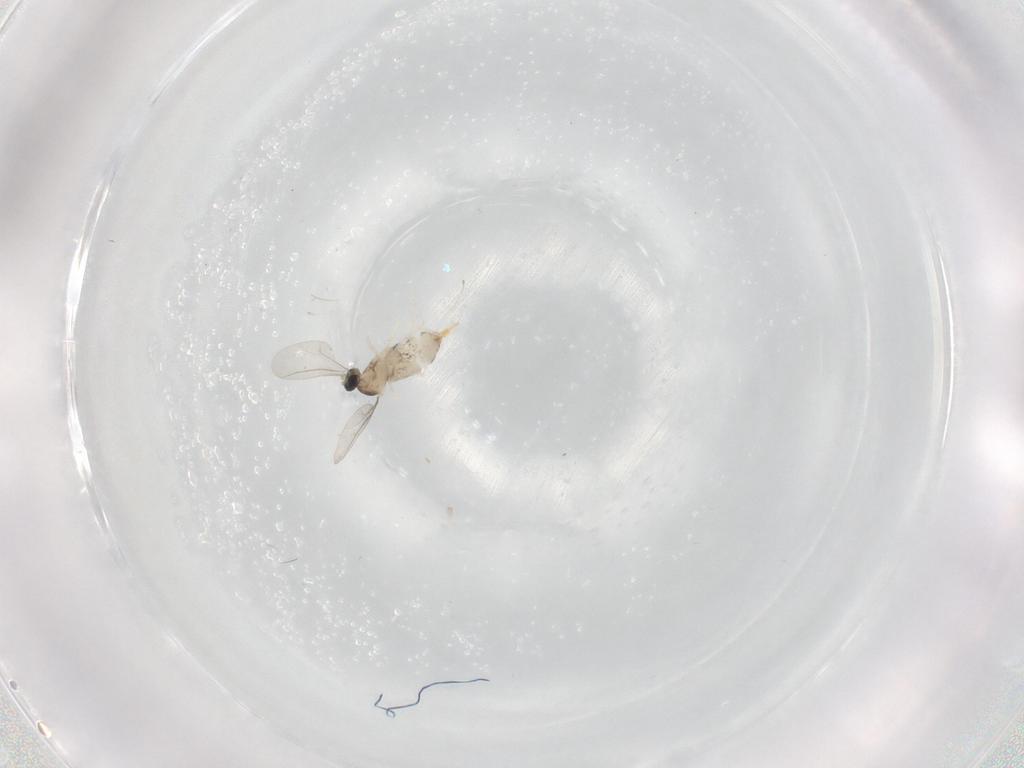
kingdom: Animalia
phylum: Arthropoda
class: Insecta
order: Diptera
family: Cecidomyiidae
